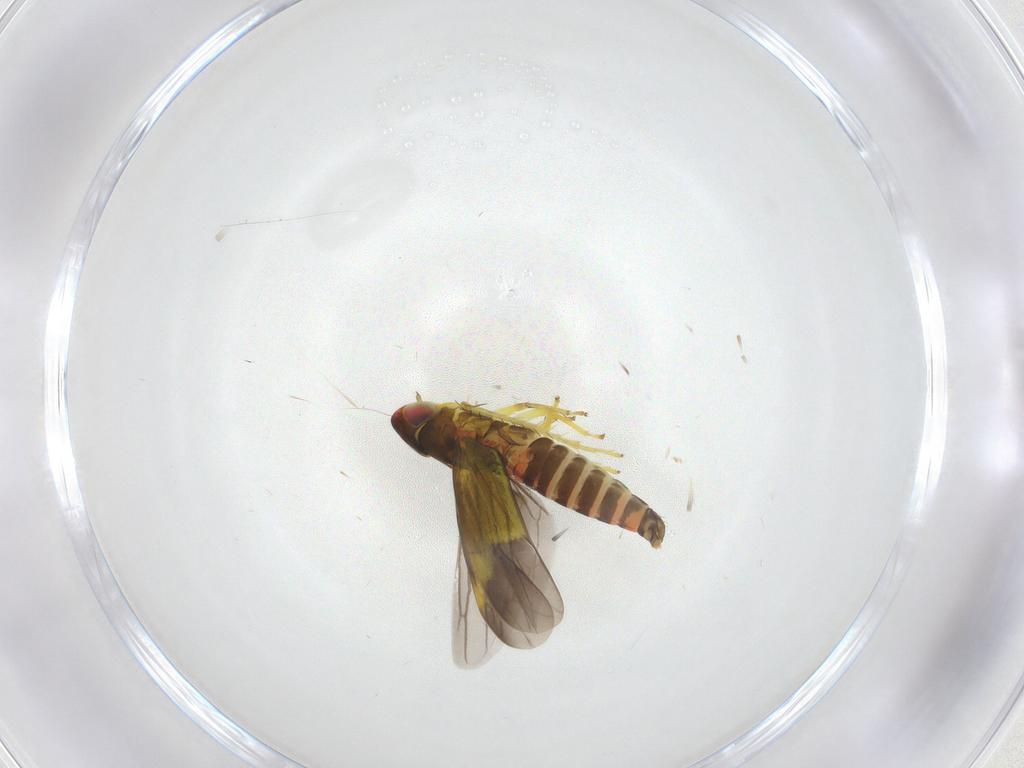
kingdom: Animalia
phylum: Arthropoda
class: Insecta
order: Hemiptera
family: Cicadellidae
